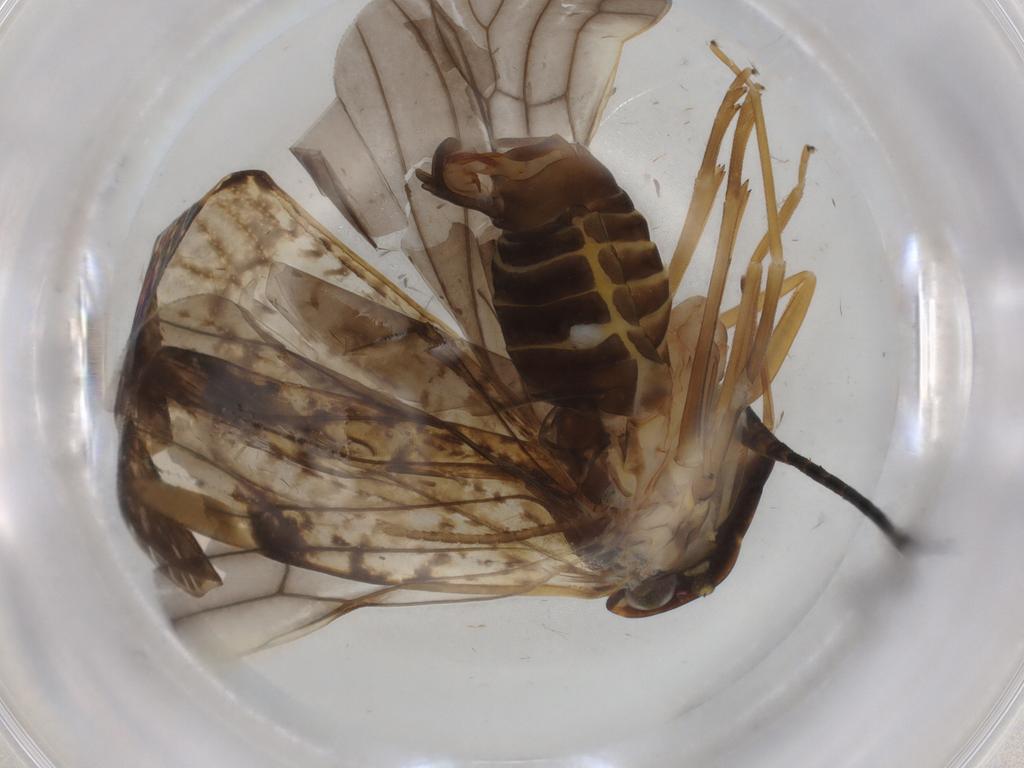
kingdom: Animalia
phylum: Arthropoda
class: Insecta
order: Hemiptera
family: Cixiidae
